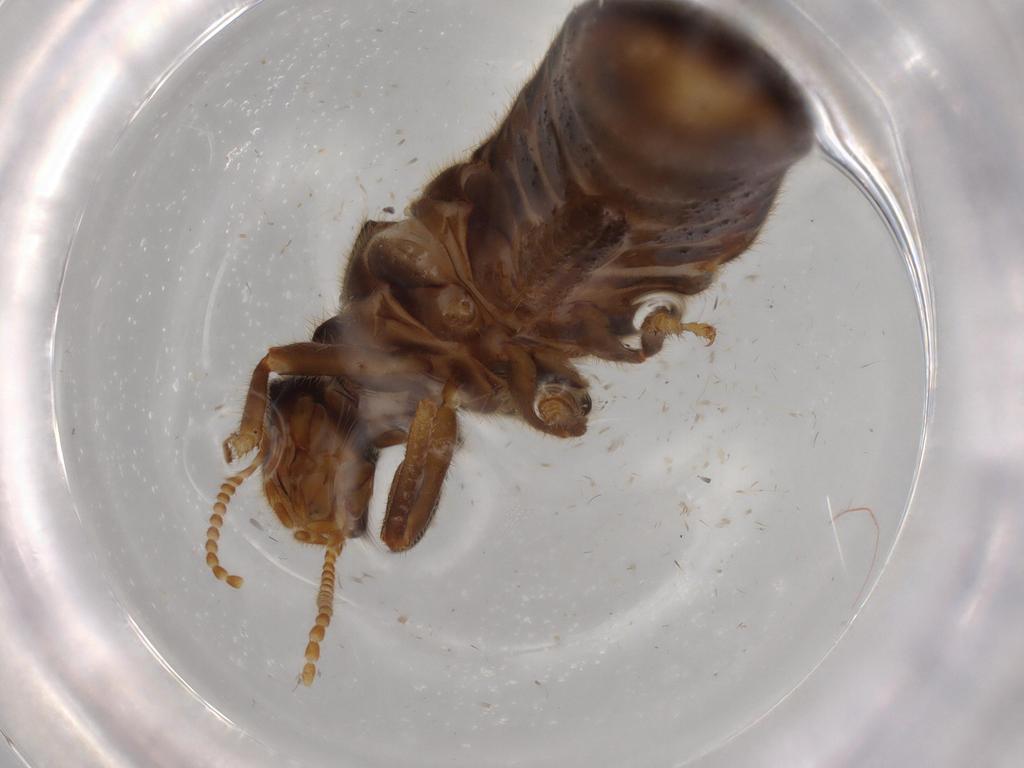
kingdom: Animalia
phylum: Arthropoda
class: Insecta
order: Blattodea
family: Termitidae
